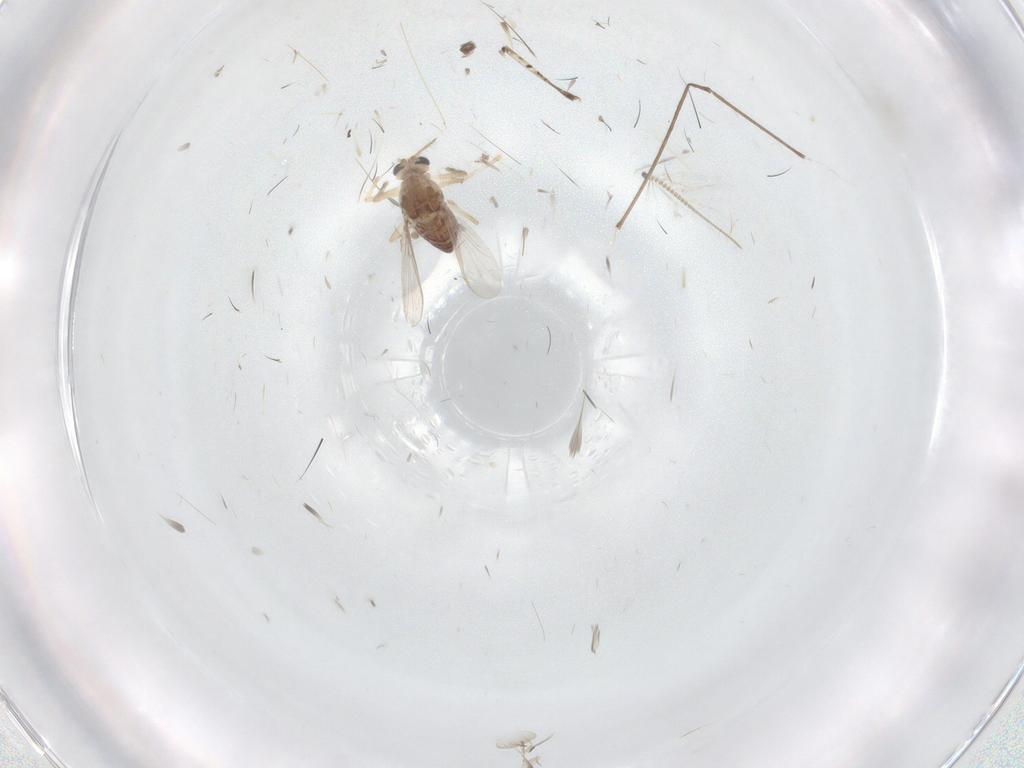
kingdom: Animalia
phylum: Arthropoda
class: Insecta
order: Diptera
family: Chironomidae
